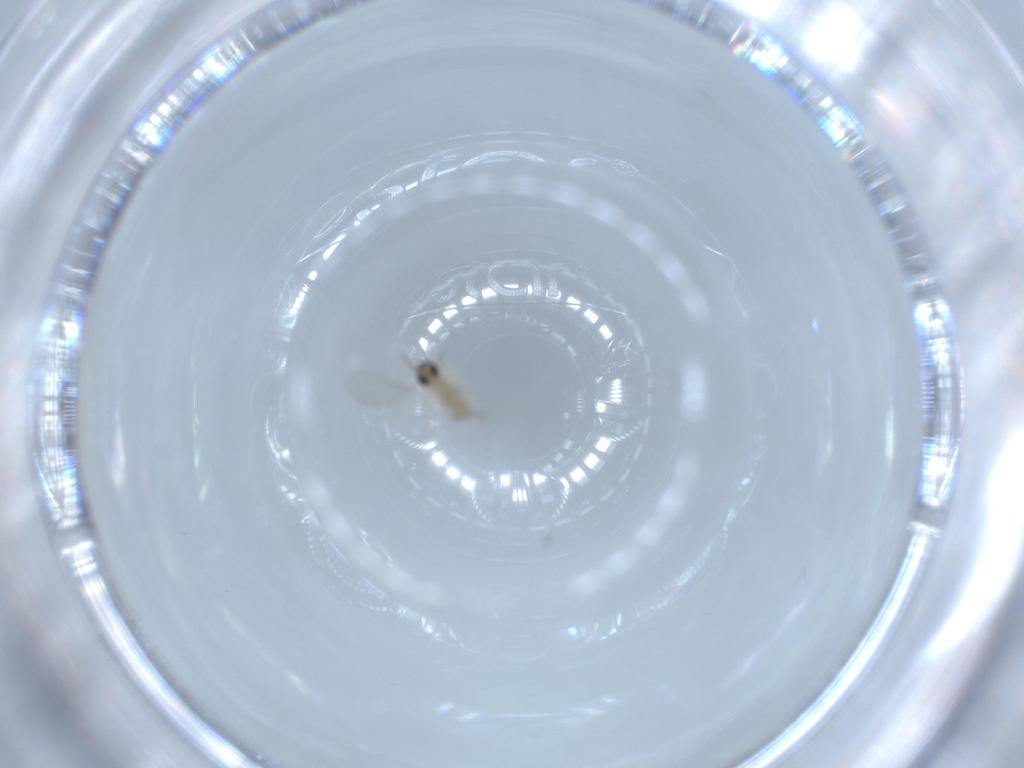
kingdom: Animalia
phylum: Arthropoda
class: Insecta
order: Diptera
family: Cecidomyiidae
